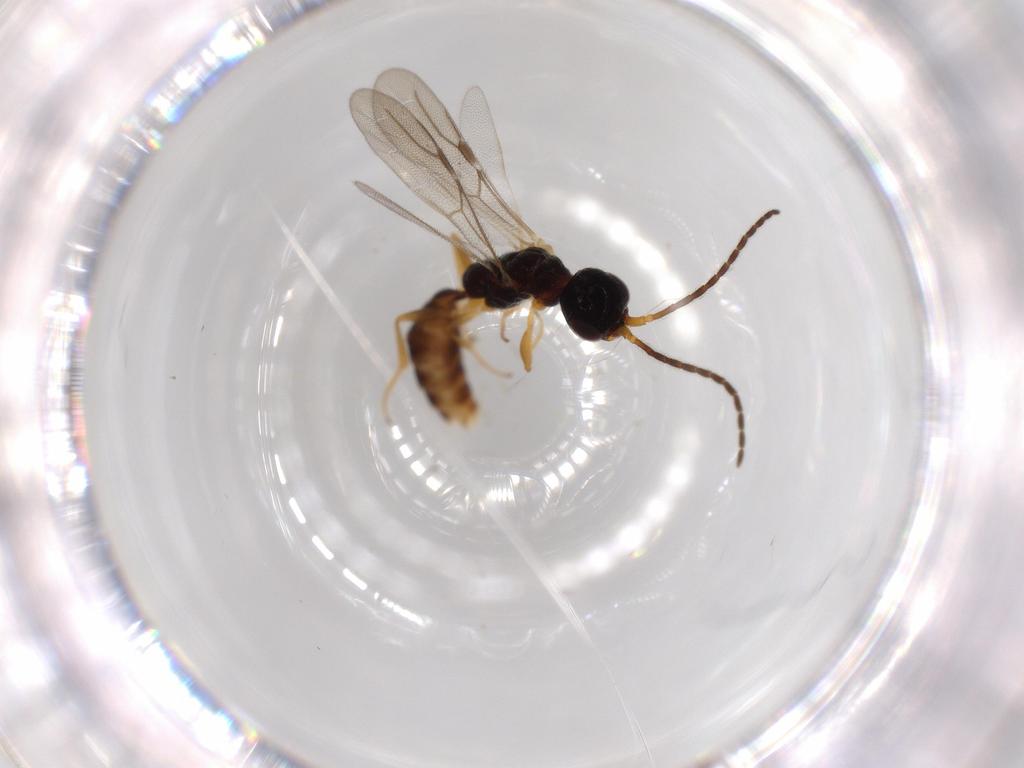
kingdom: Animalia
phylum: Arthropoda
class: Insecta
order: Hymenoptera
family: Bethylidae
